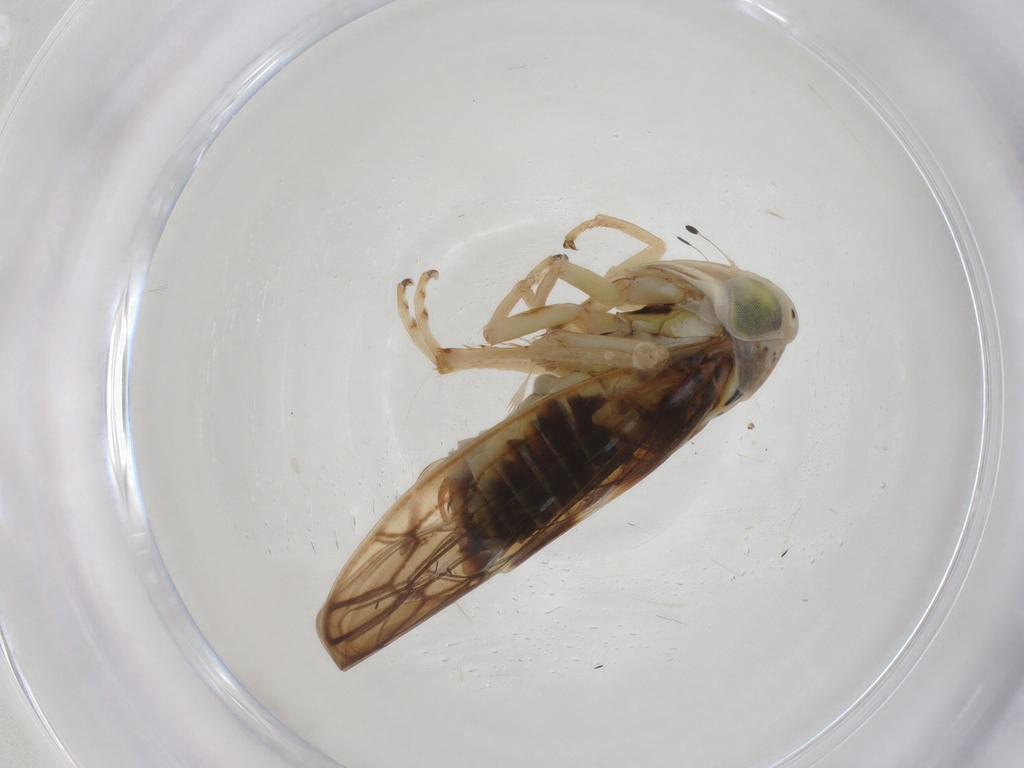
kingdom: Animalia
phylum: Arthropoda
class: Insecta
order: Hemiptera
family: Cicadellidae
